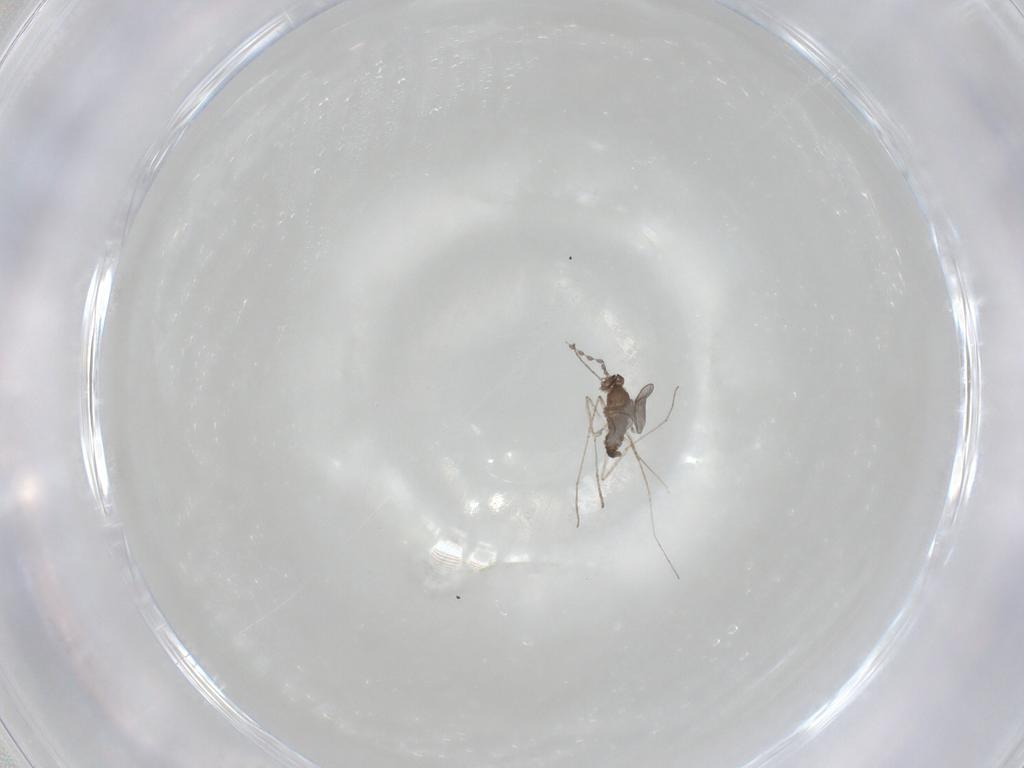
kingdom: Animalia
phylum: Arthropoda
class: Insecta
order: Diptera
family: Cecidomyiidae
